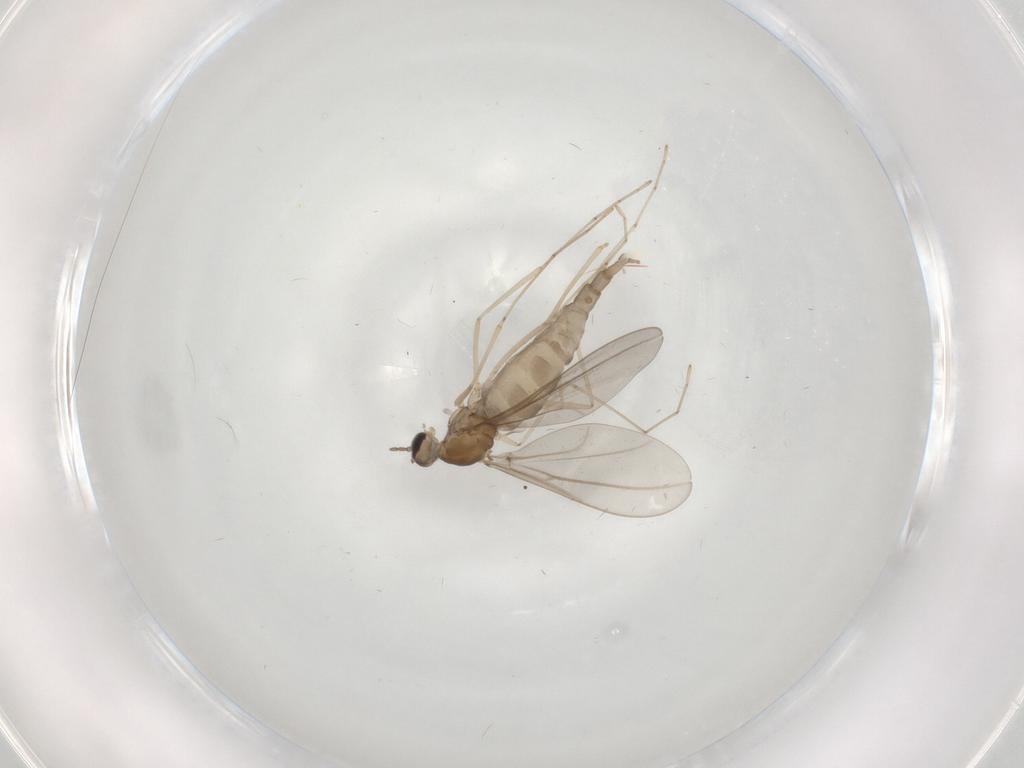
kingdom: Animalia
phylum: Arthropoda
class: Insecta
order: Diptera
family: Cecidomyiidae
